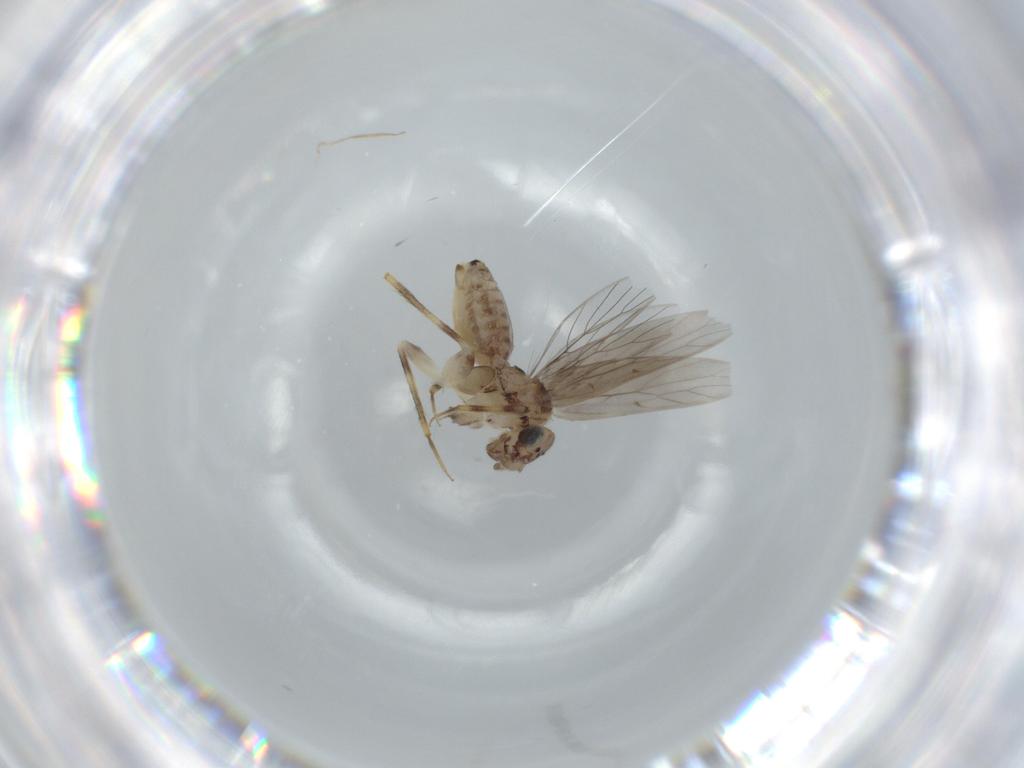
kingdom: Animalia
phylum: Arthropoda
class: Insecta
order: Psocodea
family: Lepidopsocidae
